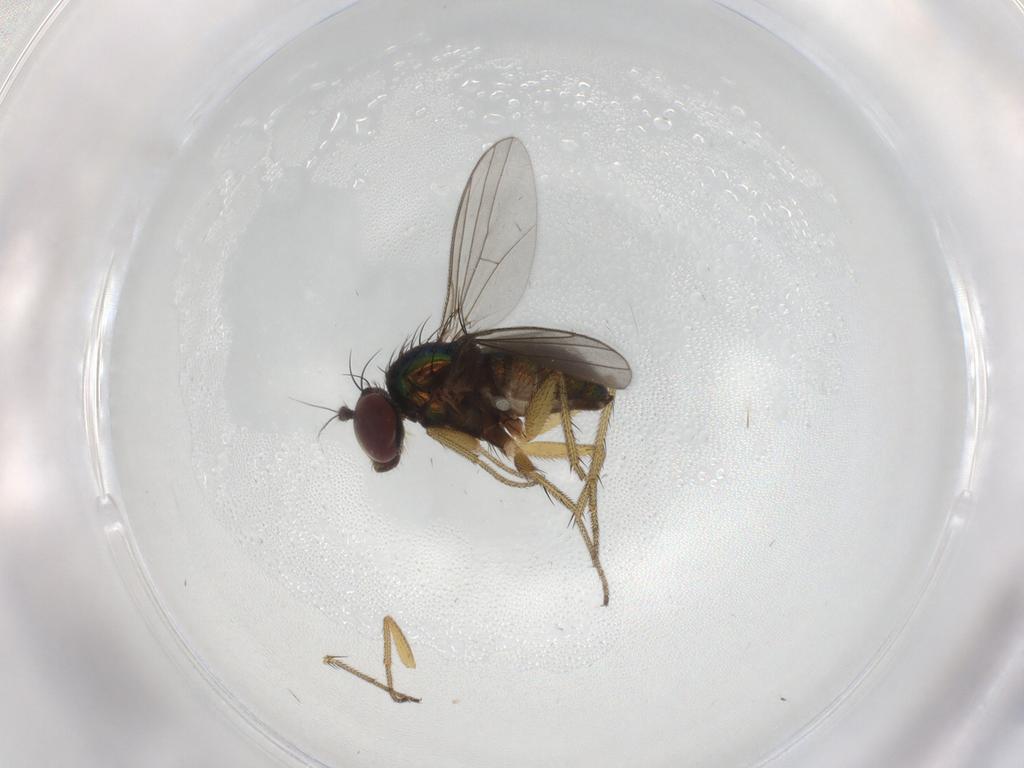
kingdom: Animalia
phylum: Arthropoda
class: Insecta
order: Diptera
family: Dolichopodidae
